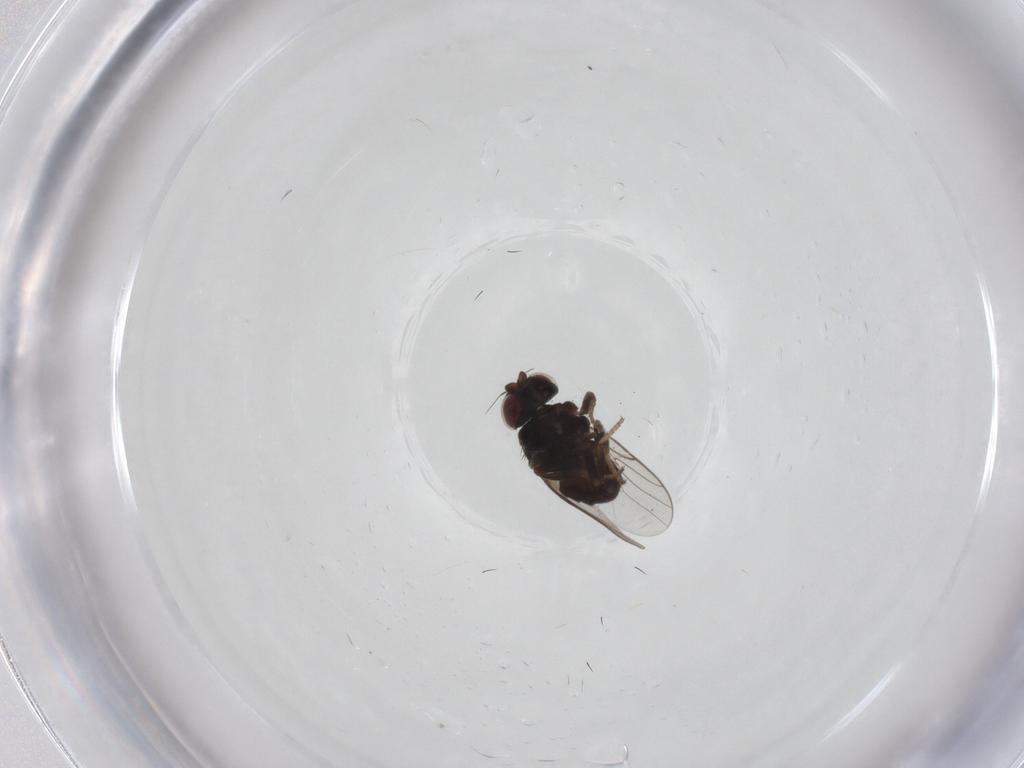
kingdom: Animalia
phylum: Arthropoda
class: Insecta
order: Diptera
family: Chloropidae
